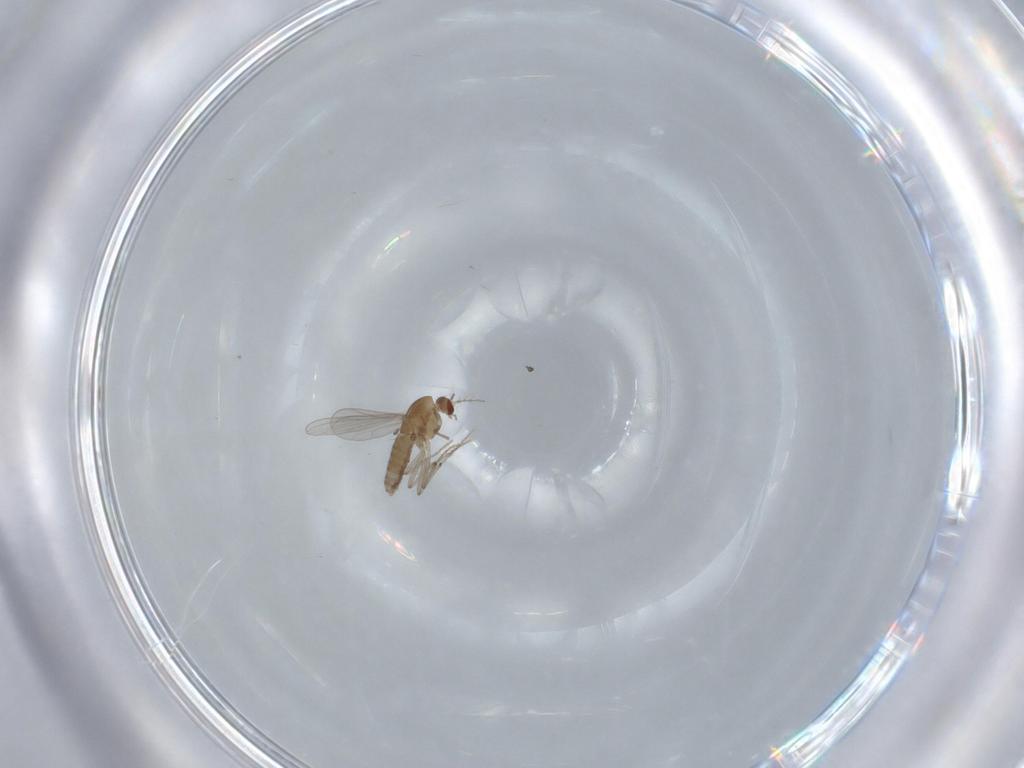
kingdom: Animalia
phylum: Arthropoda
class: Insecta
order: Diptera
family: Chironomidae
